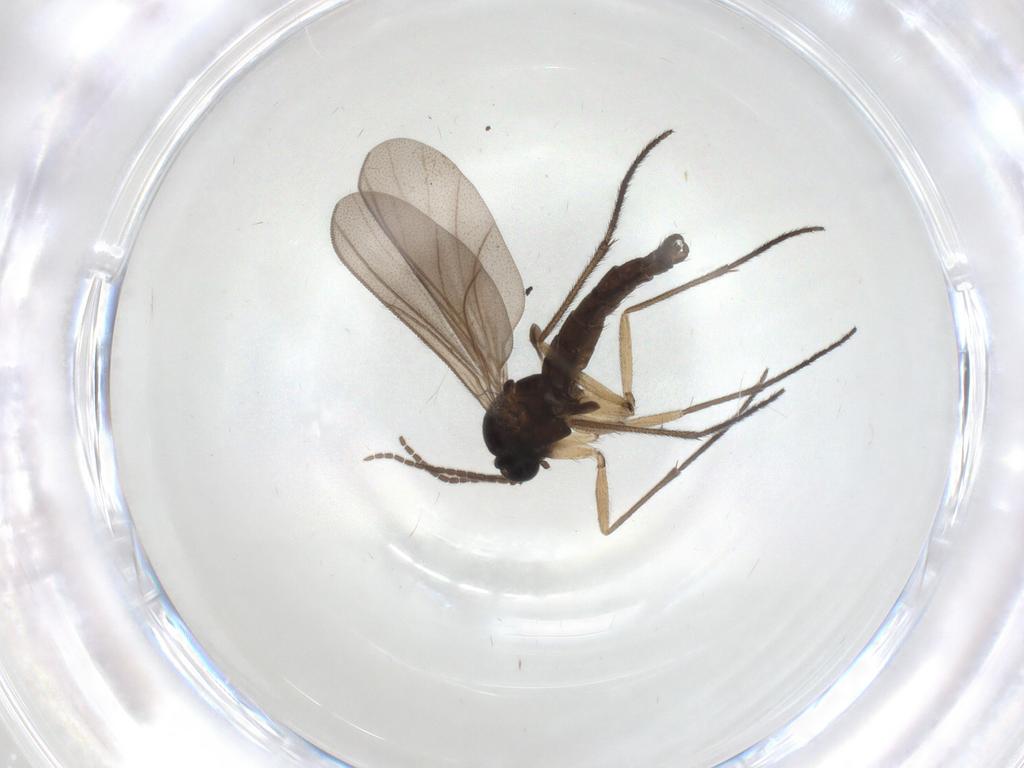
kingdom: Animalia
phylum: Arthropoda
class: Insecta
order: Diptera
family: Sciaridae
